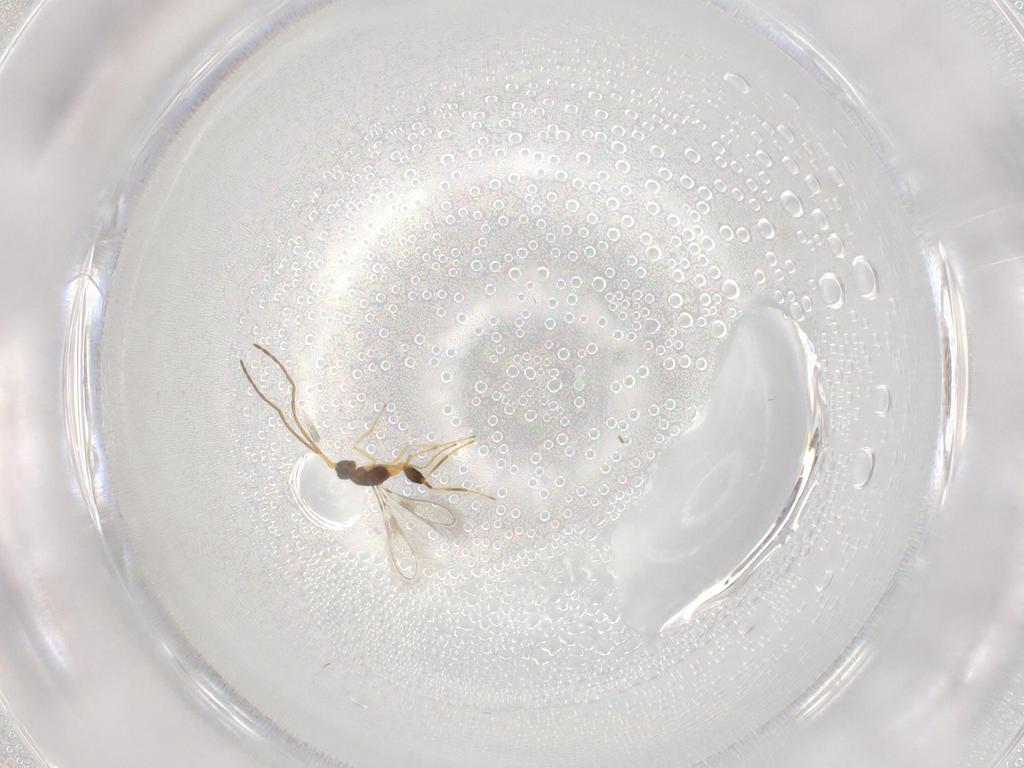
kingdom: Animalia
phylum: Arthropoda
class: Insecta
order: Hymenoptera
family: Mymaridae
